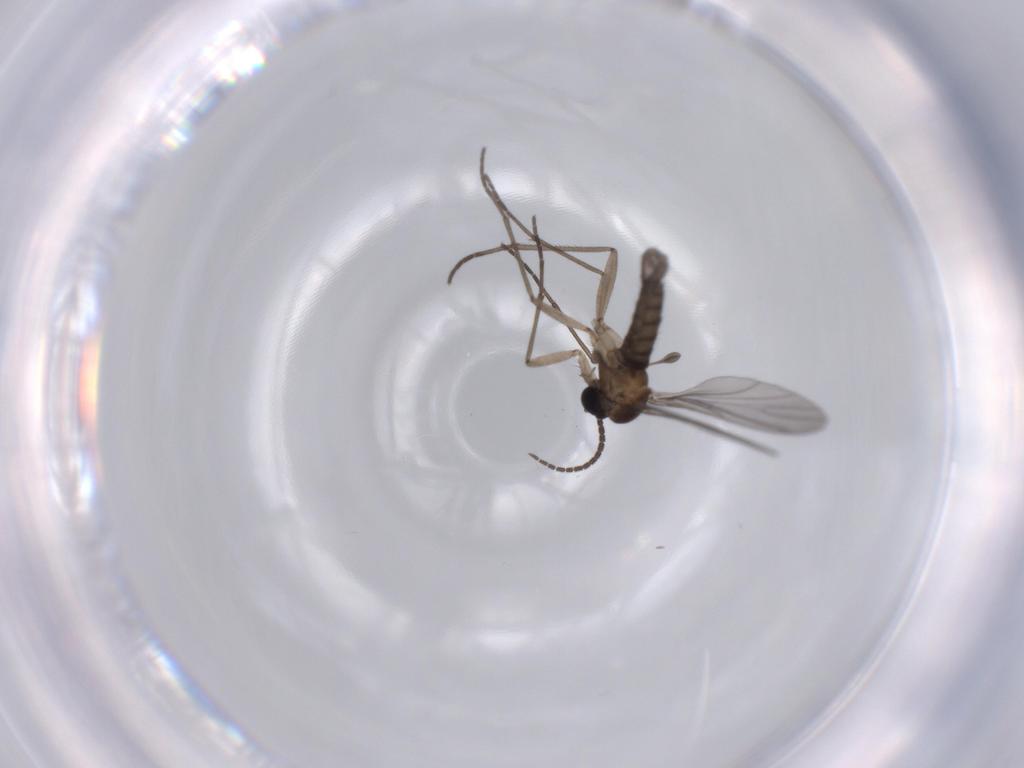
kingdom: Animalia
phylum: Arthropoda
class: Insecta
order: Diptera
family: Sciaridae
